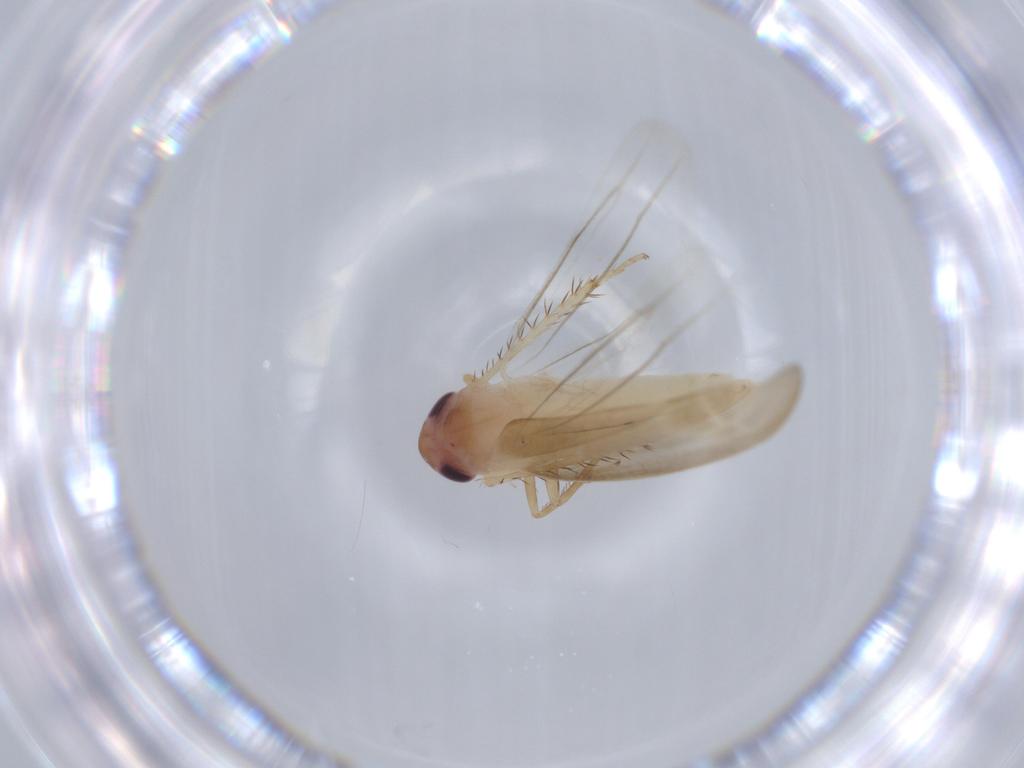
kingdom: Animalia
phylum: Arthropoda
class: Insecta
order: Hemiptera
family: Cicadellidae
